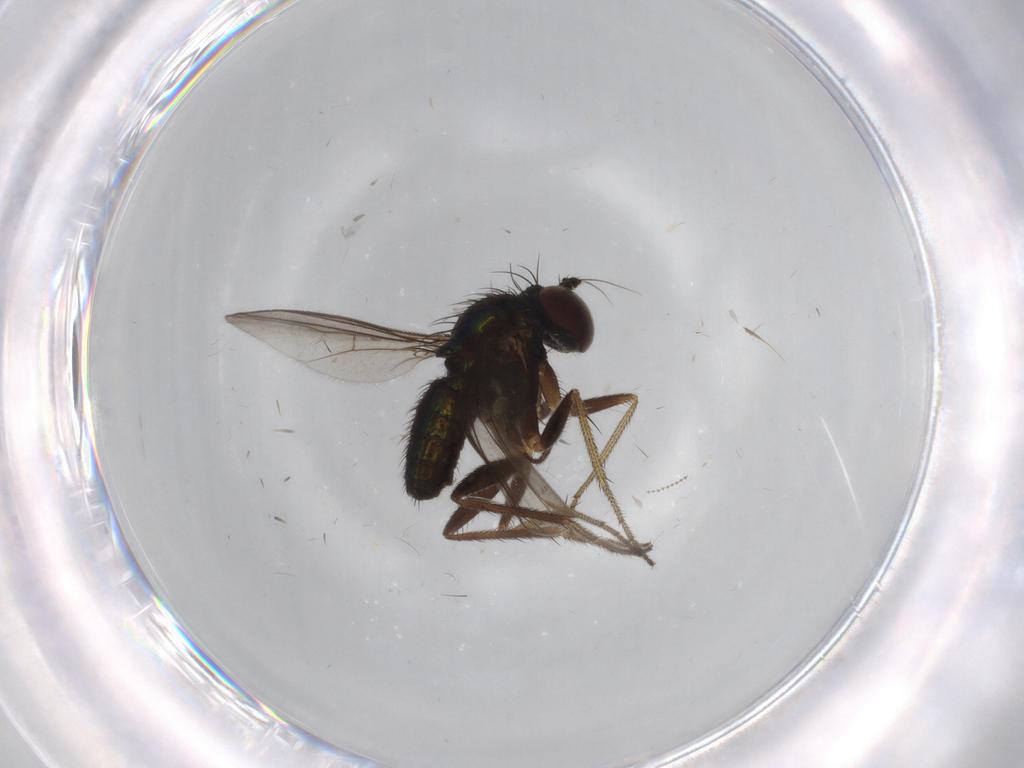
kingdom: Animalia
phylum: Arthropoda
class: Insecta
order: Diptera
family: Dolichopodidae
